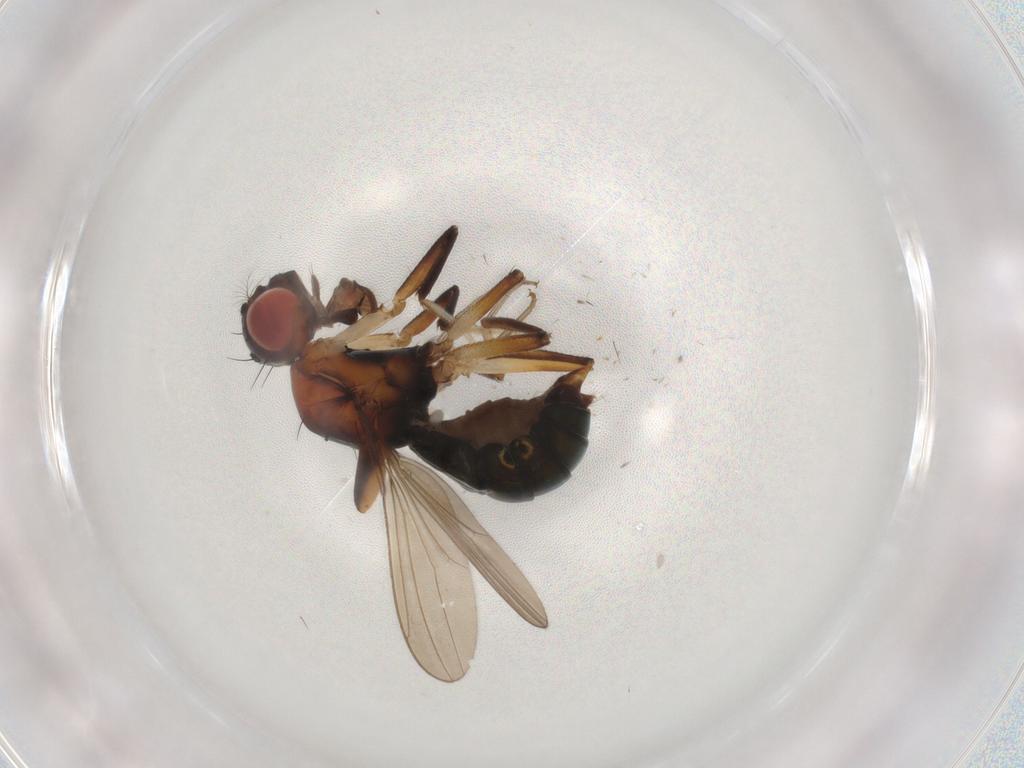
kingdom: Animalia
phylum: Arthropoda
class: Insecta
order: Diptera
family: Drosophilidae
